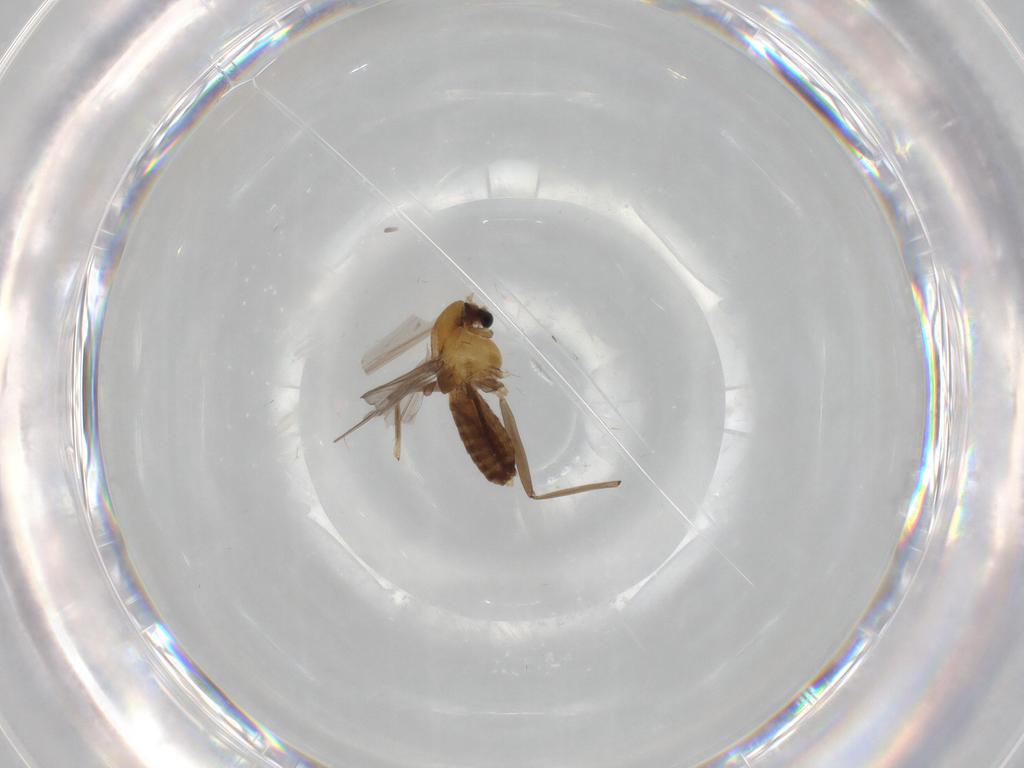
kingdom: Animalia
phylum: Arthropoda
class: Insecta
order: Diptera
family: Chironomidae
